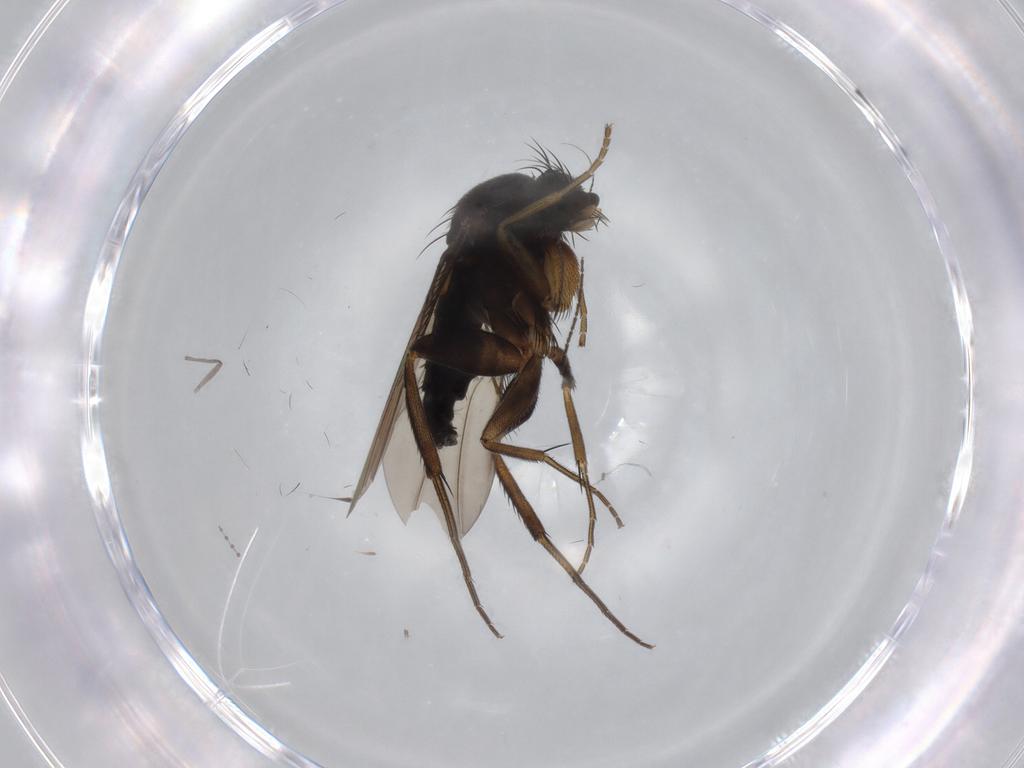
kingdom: Animalia
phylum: Arthropoda
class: Insecta
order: Diptera
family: Phoridae
